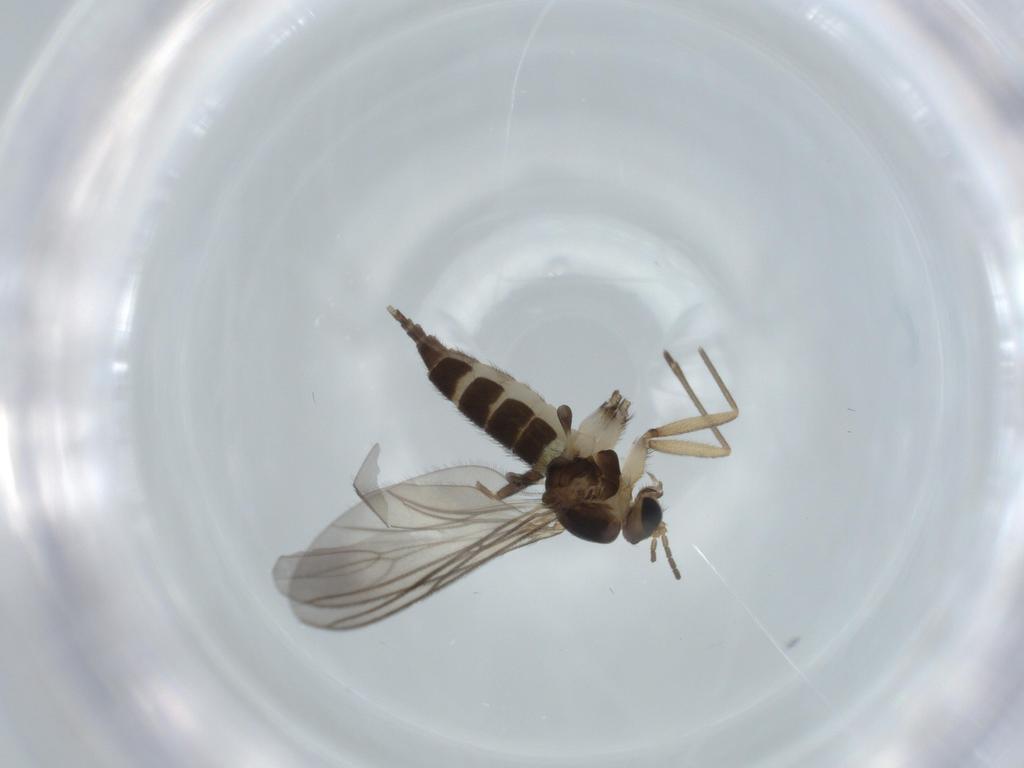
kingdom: Animalia
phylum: Arthropoda
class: Insecta
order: Diptera
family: Sciaridae
